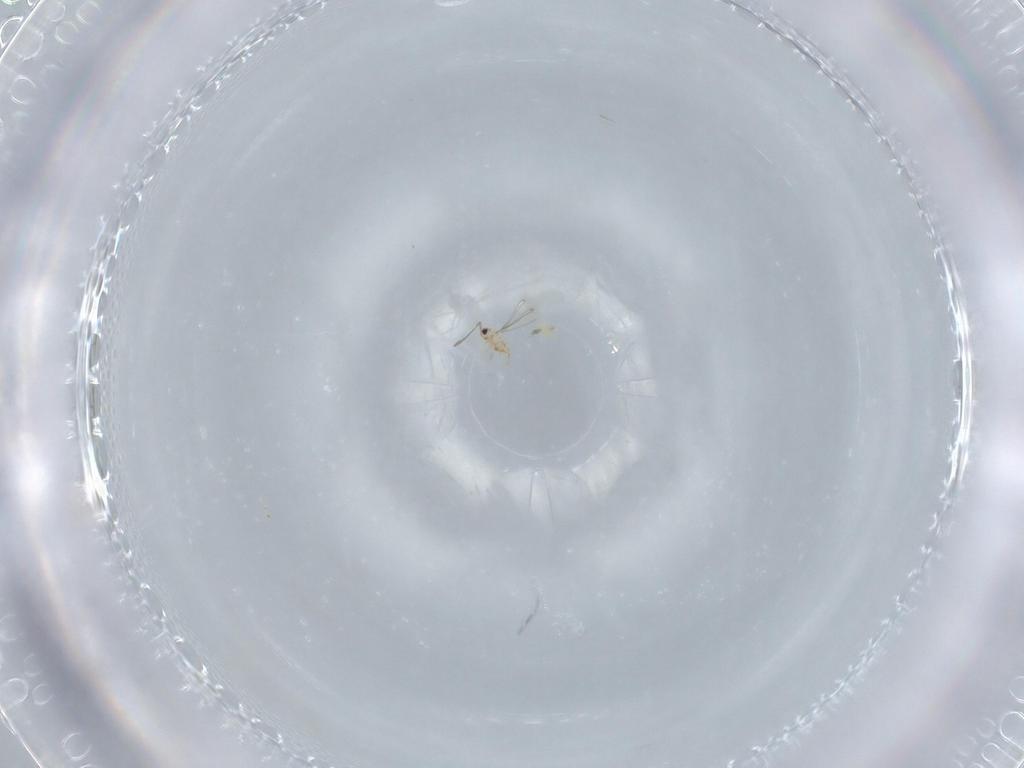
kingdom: Animalia
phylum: Arthropoda
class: Insecta
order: Hymenoptera
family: Mymaridae
